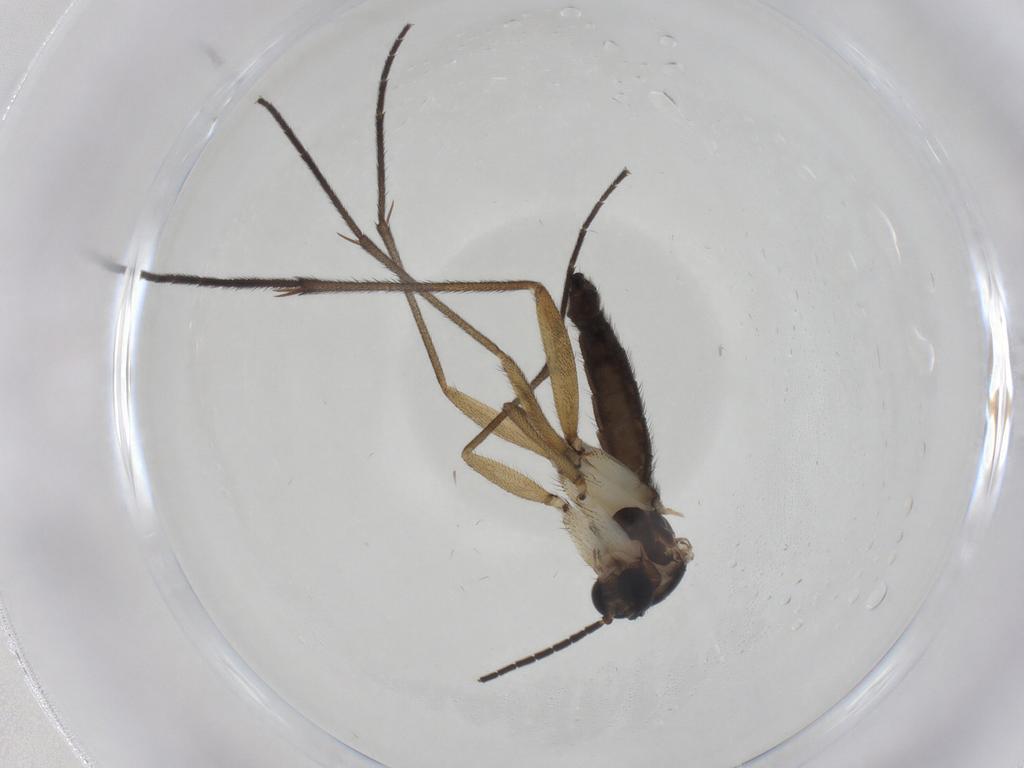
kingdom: Animalia
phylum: Arthropoda
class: Insecta
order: Diptera
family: Sciaridae
